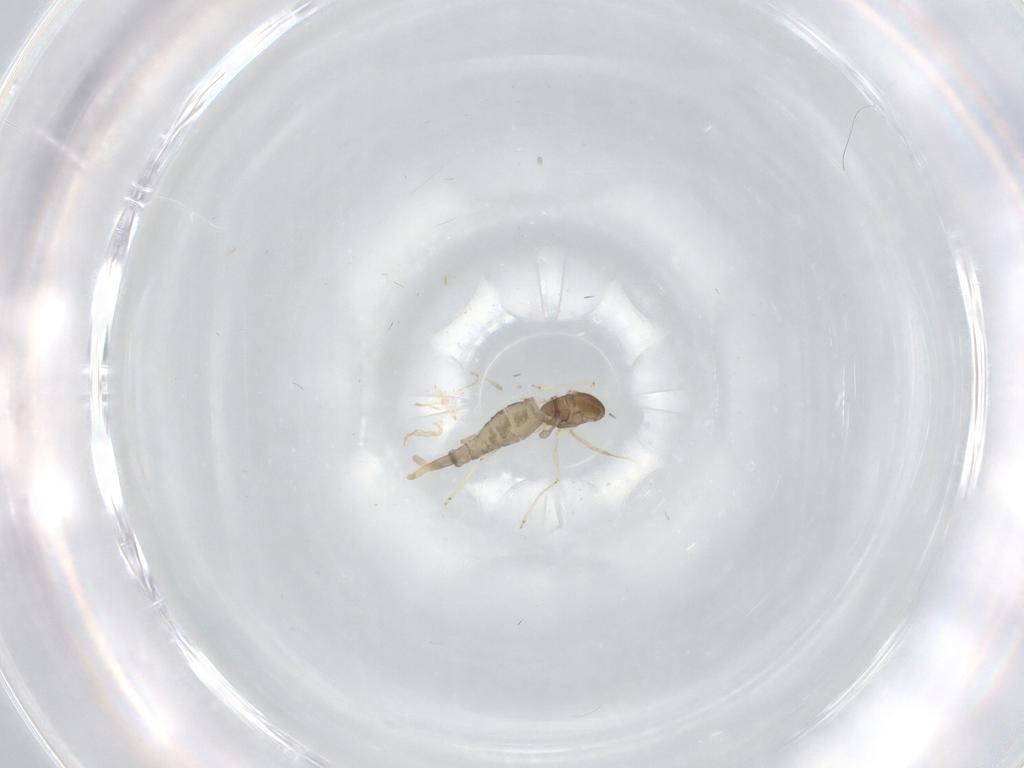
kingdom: Animalia
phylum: Arthropoda
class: Insecta
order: Diptera
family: Cecidomyiidae
